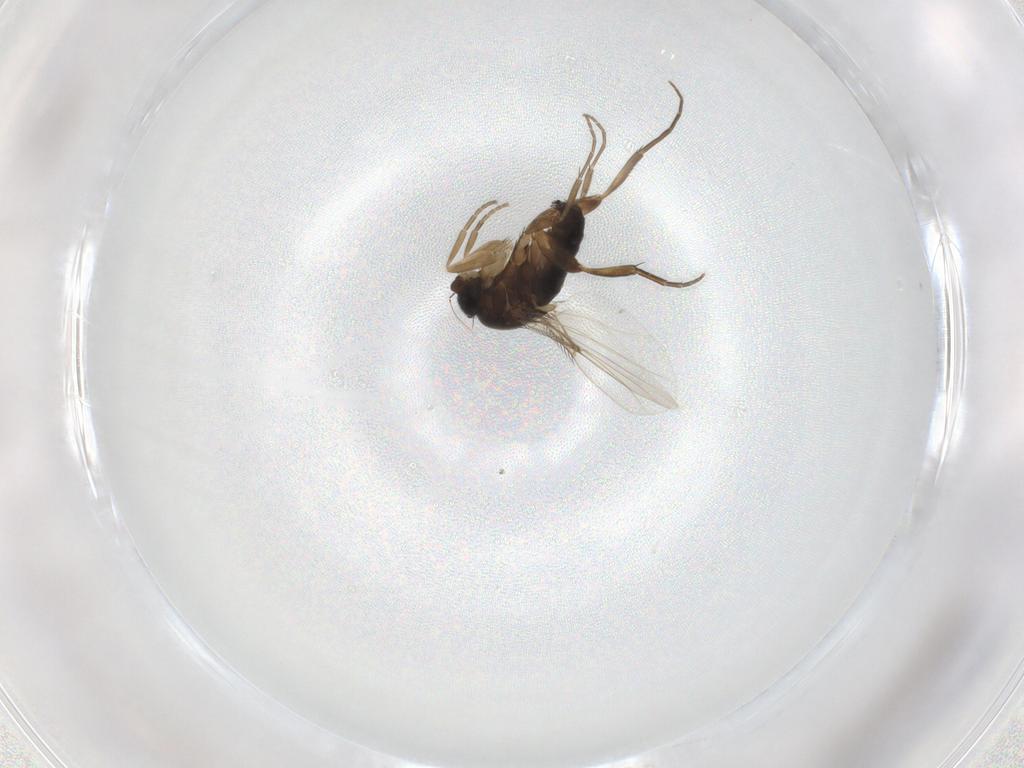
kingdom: Animalia
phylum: Arthropoda
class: Insecta
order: Diptera
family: Phoridae
